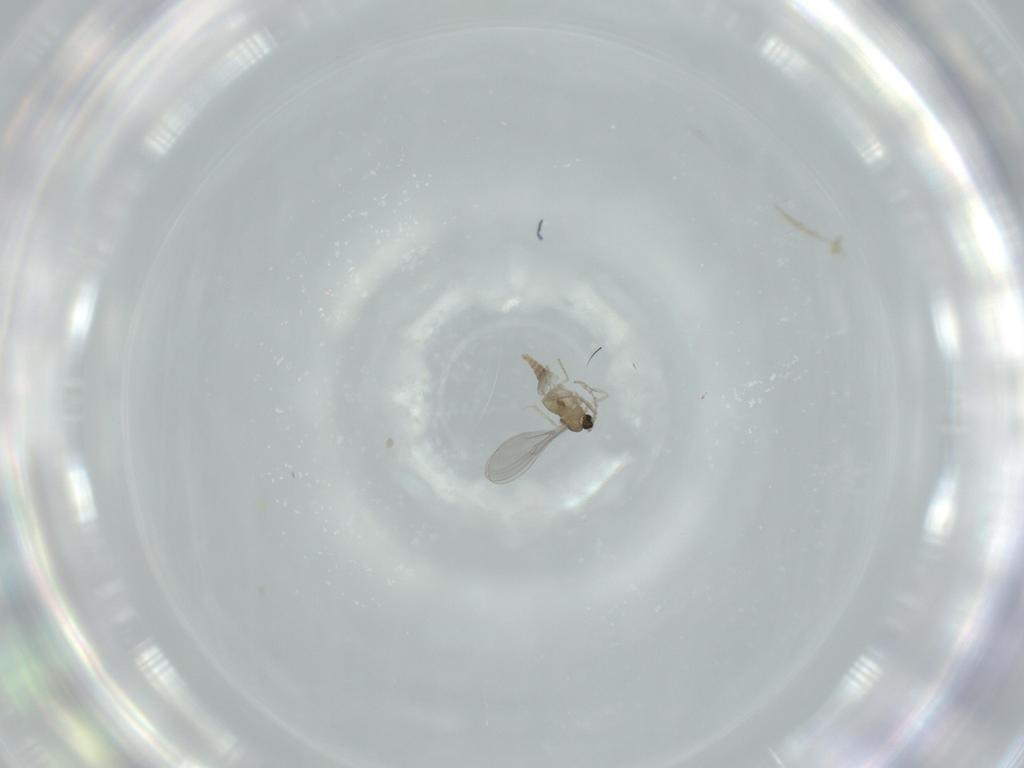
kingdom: Animalia
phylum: Arthropoda
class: Insecta
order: Diptera
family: Cecidomyiidae
